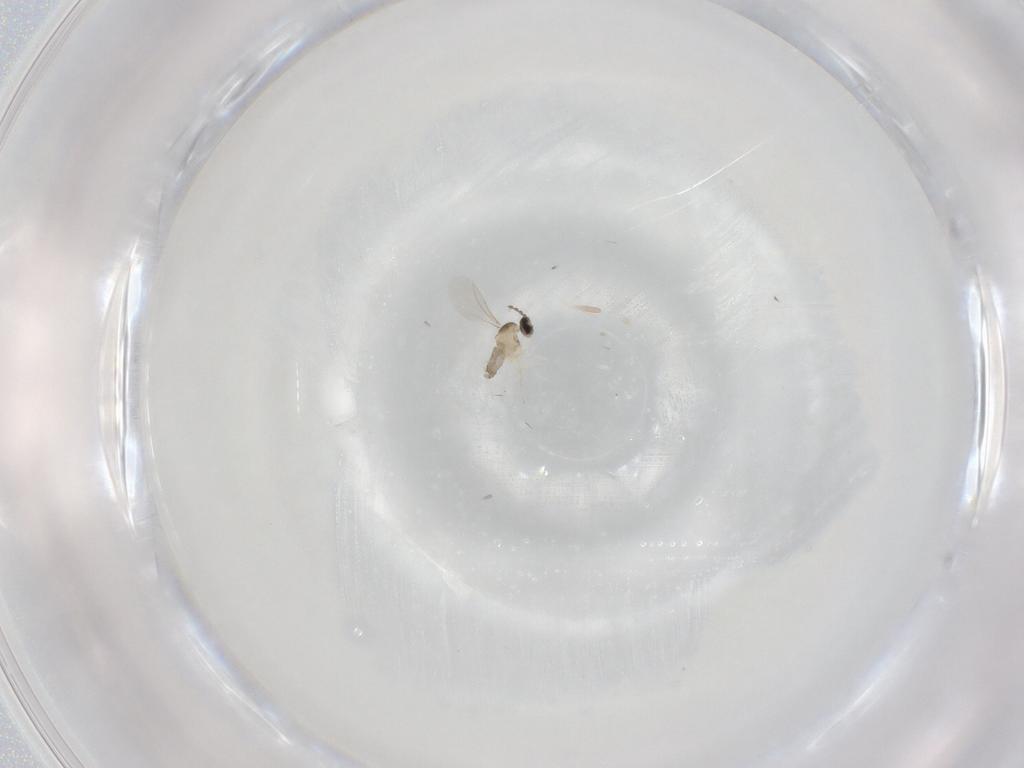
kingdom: Animalia
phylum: Arthropoda
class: Insecta
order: Diptera
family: Cecidomyiidae
